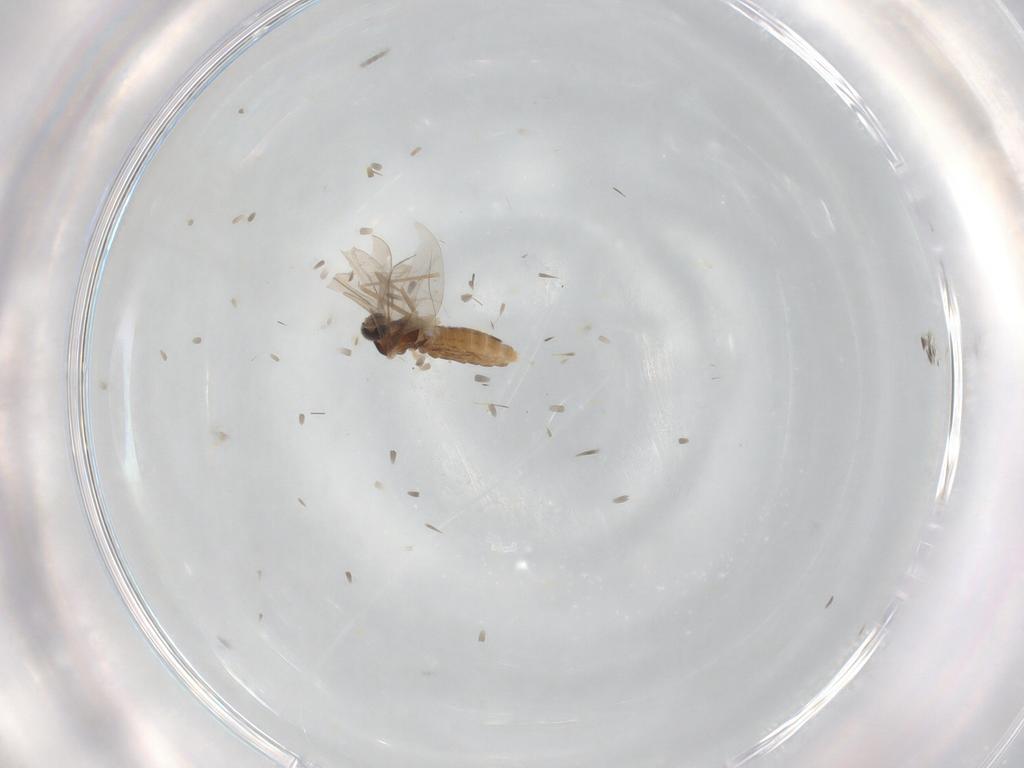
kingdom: Animalia
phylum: Arthropoda
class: Insecta
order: Diptera
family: Cecidomyiidae
